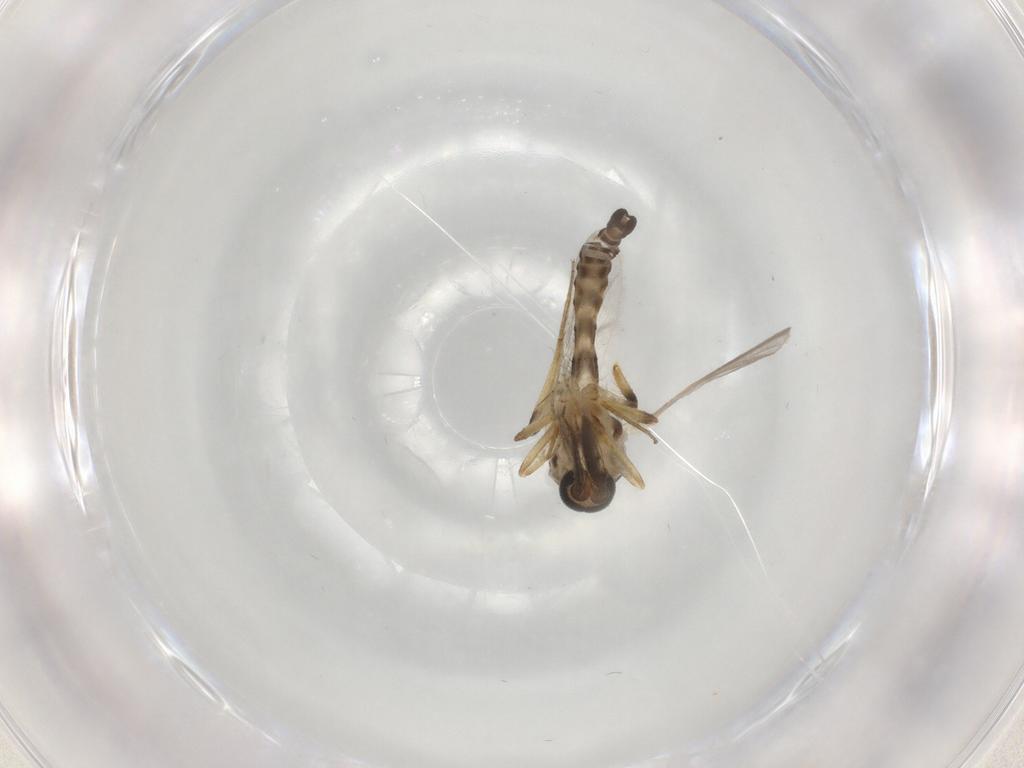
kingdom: Animalia
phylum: Arthropoda
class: Insecta
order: Diptera
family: Ceratopogonidae
